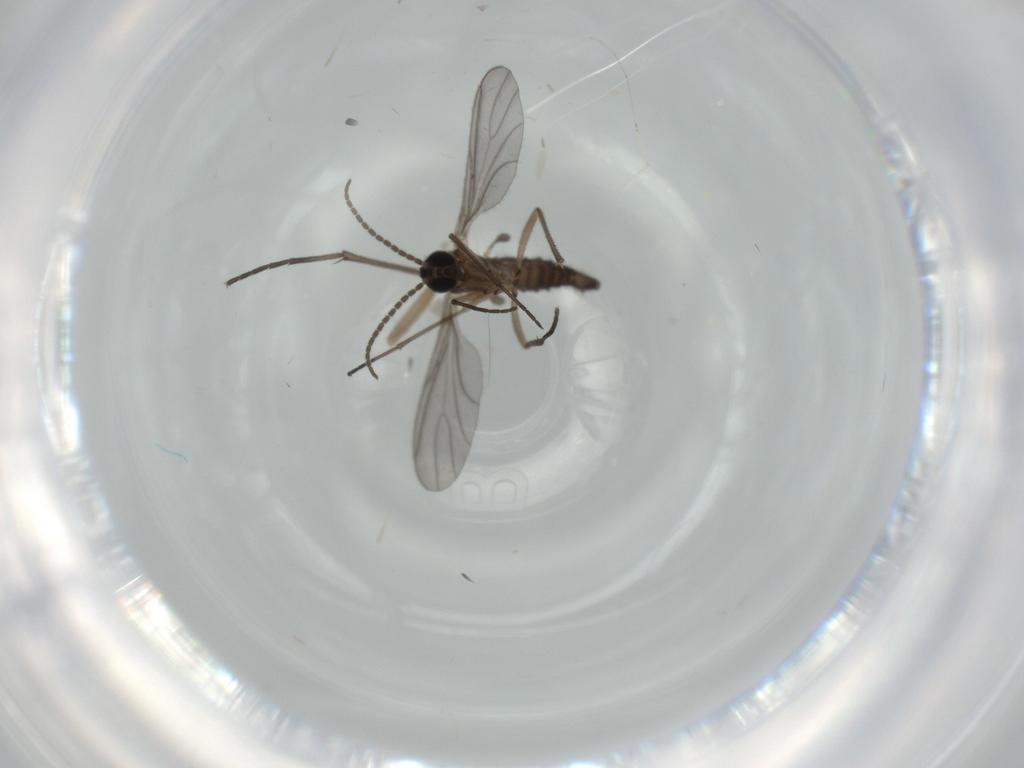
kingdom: Animalia
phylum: Arthropoda
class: Insecta
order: Diptera
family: Sciaridae
